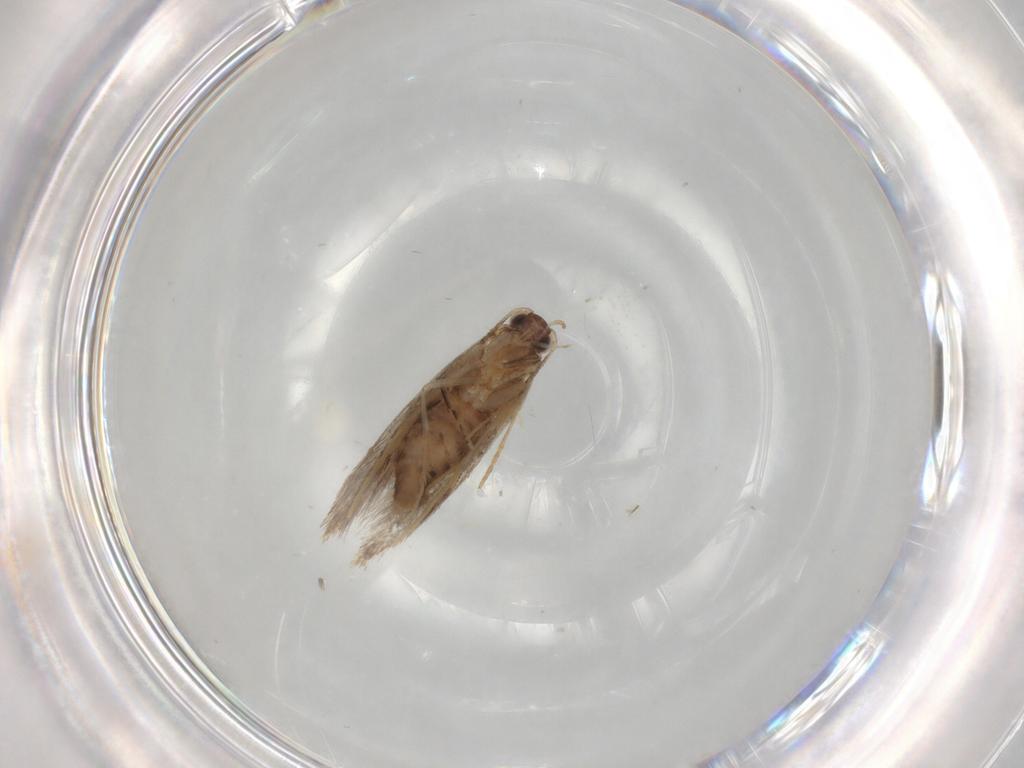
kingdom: Animalia
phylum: Arthropoda
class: Insecta
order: Lepidoptera
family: Tineidae
